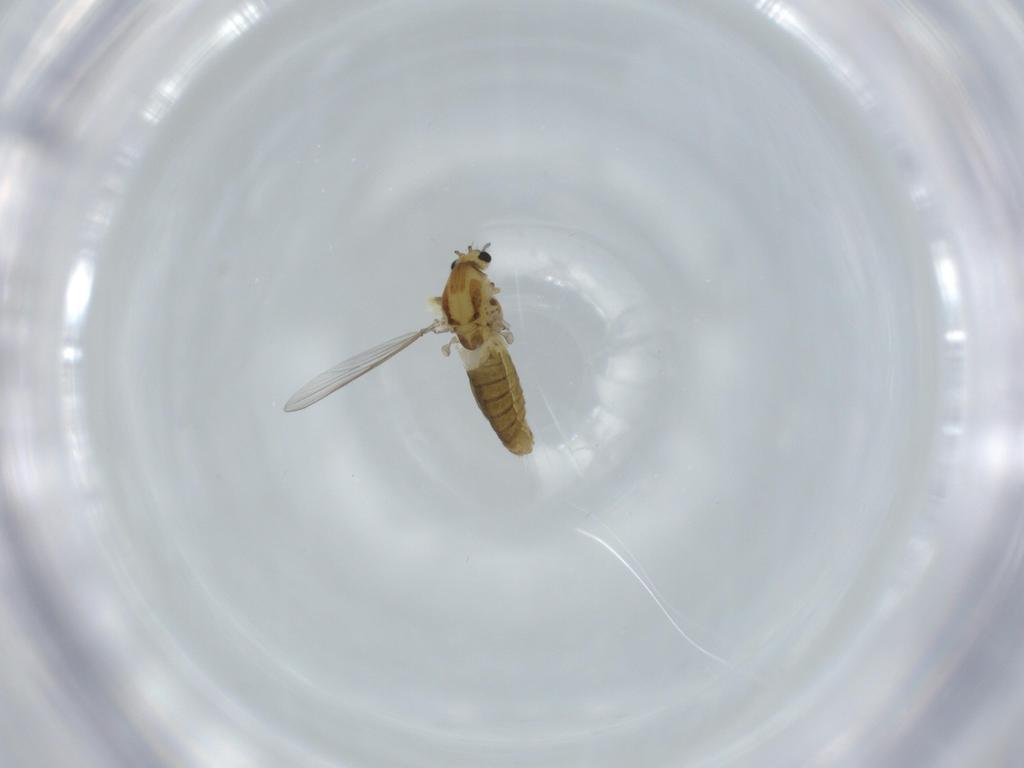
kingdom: Animalia
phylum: Arthropoda
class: Insecta
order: Diptera
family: Chironomidae
